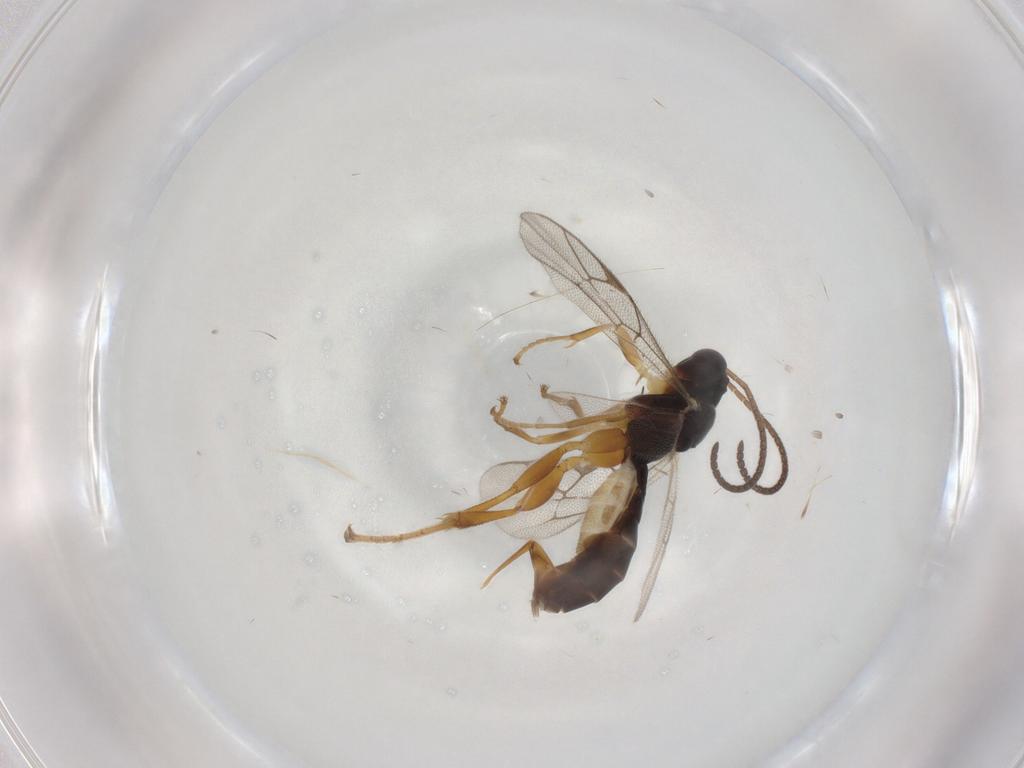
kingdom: Animalia
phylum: Arthropoda
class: Insecta
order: Hymenoptera
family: Ichneumonidae
